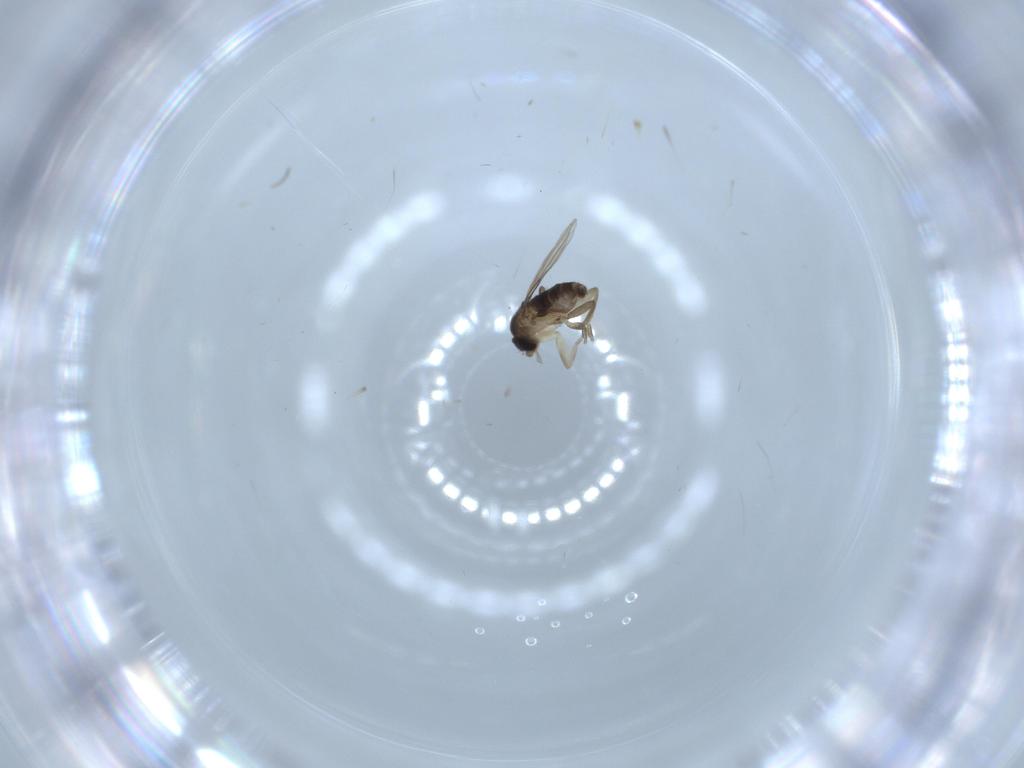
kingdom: Animalia
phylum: Arthropoda
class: Insecta
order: Diptera
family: Phoridae
